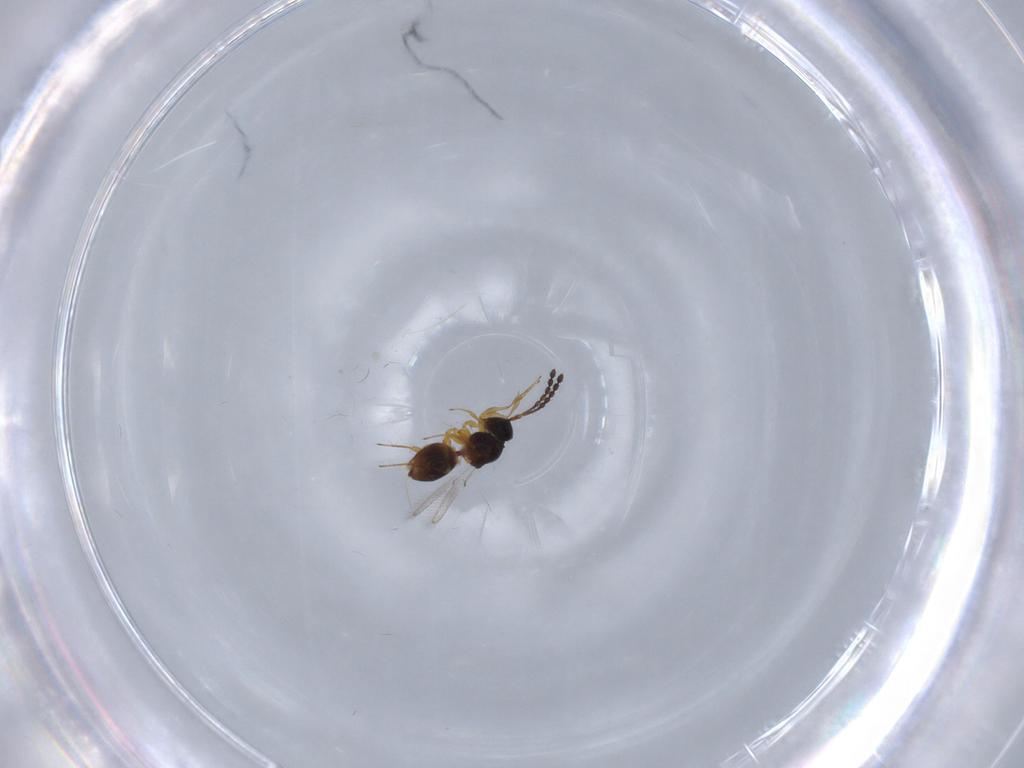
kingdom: Animalia
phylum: Arthropoda
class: Insecta
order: Hymenoptera
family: Figitidae
